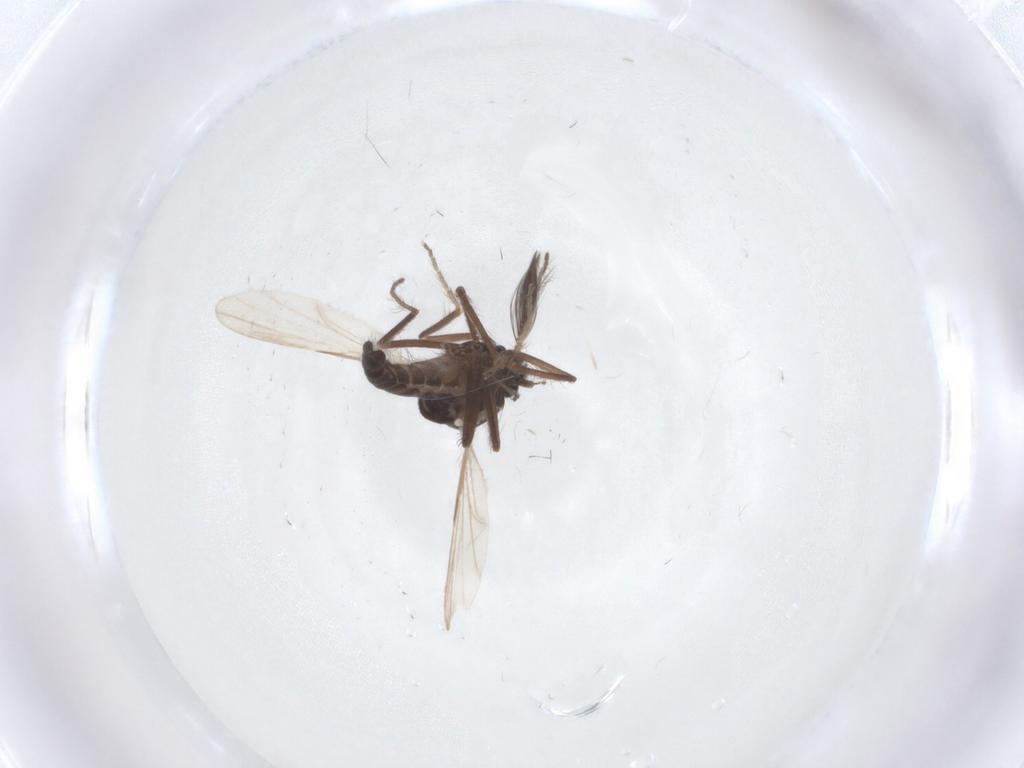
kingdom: Animalia
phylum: Arthropoda
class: Insecta
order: Diptera
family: Ceratopogonidae
